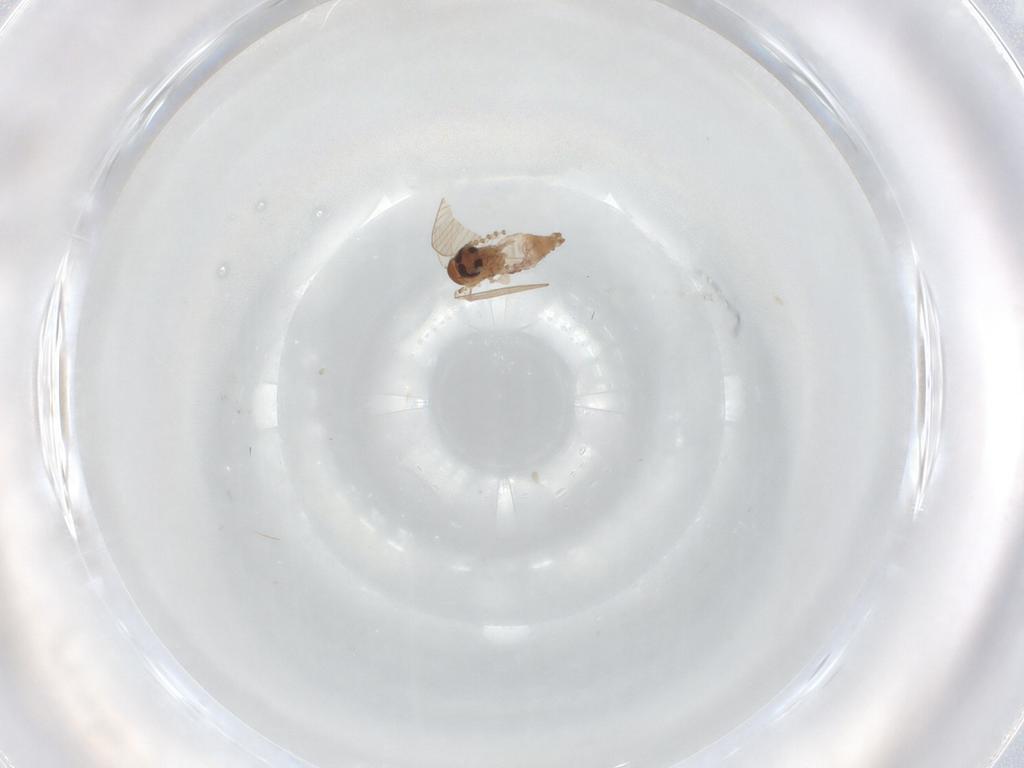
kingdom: Animalia
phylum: Arthropoda
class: Insecta
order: Diptera
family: Psychodidae
